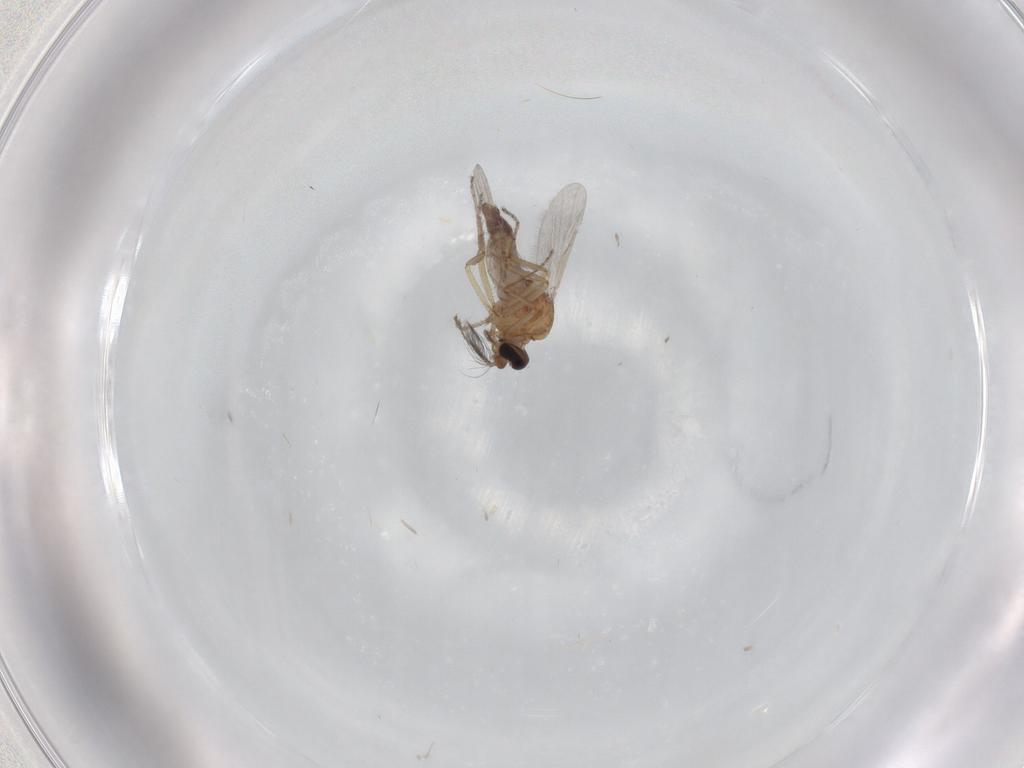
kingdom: Animalia
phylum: Arthropoda
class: Insecta
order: Diptera
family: Ceratopogonidae
